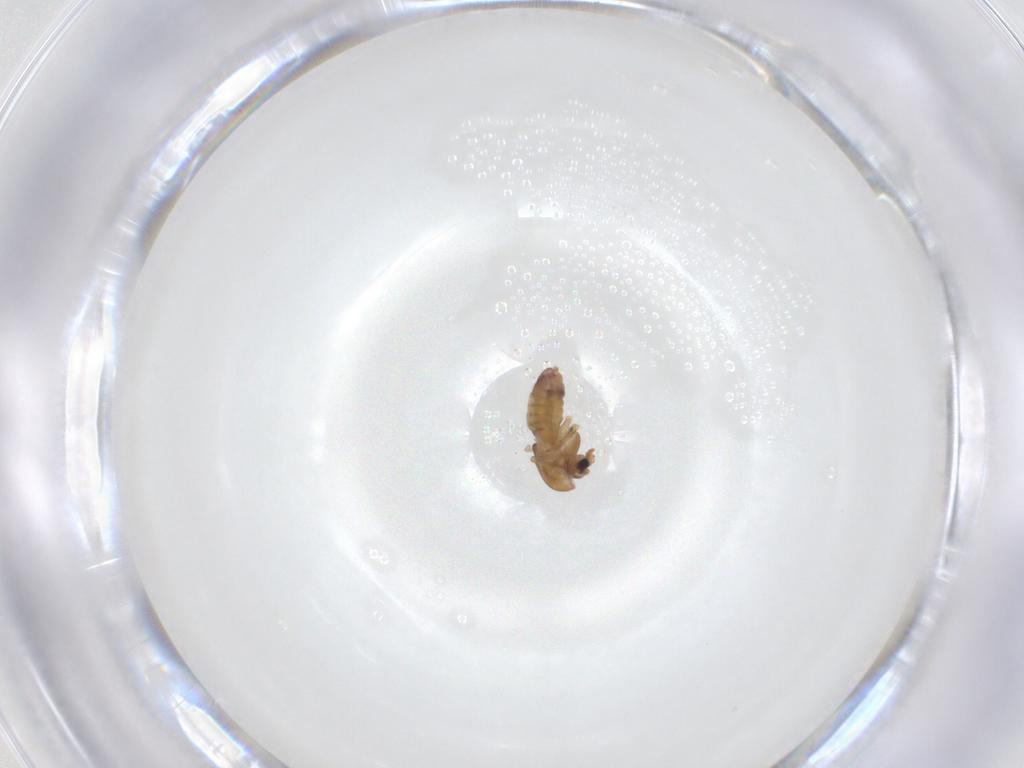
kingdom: Animalia
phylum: Arthropoda
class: Insecta
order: Diptera
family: Chironomidae
